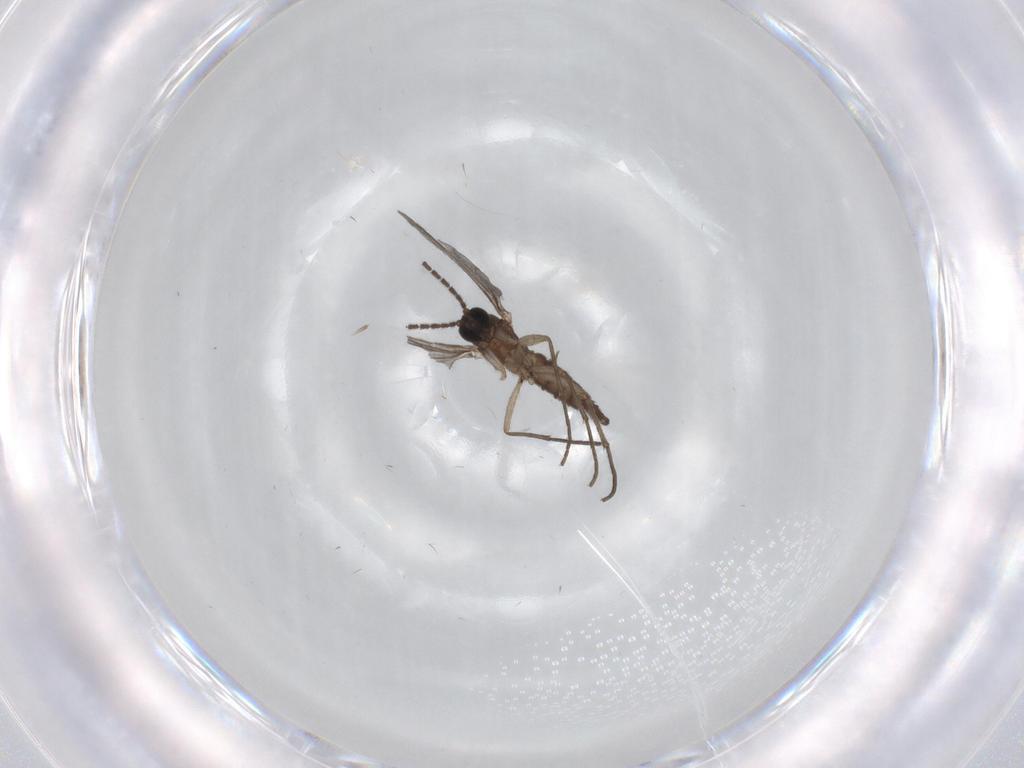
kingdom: Animalia
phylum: Arthropoda
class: Insecta
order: Diptera
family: Sciaridae
